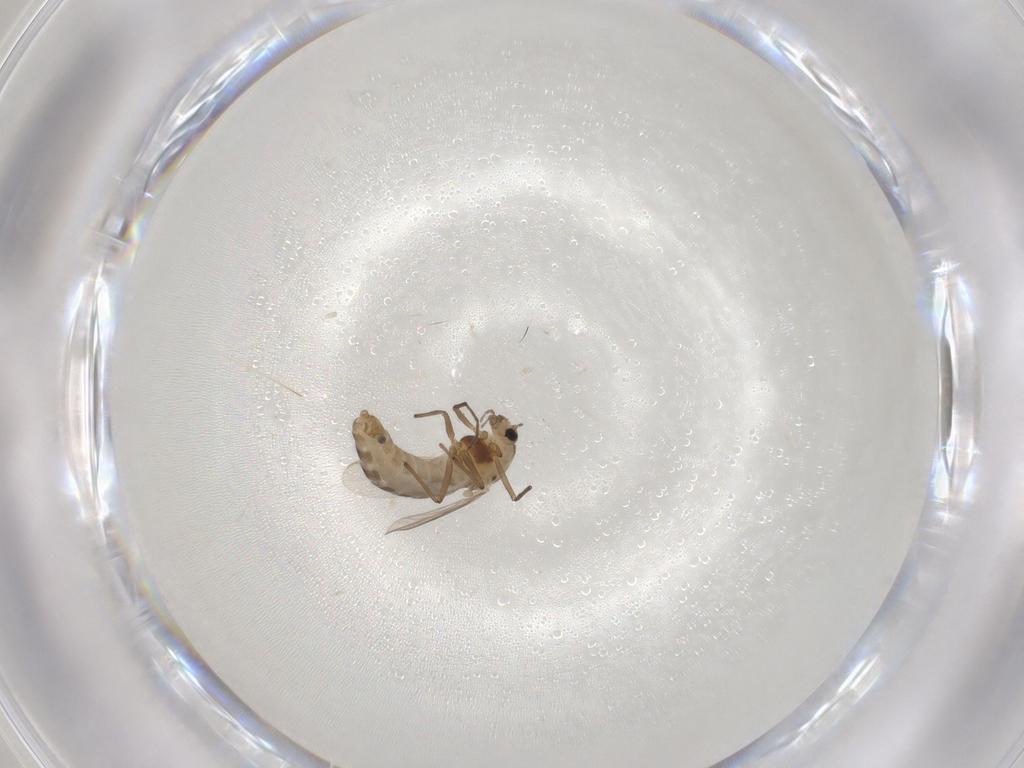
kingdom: Animalia
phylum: Arthropoda
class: Insecta
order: Diptera
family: Chironomidae
